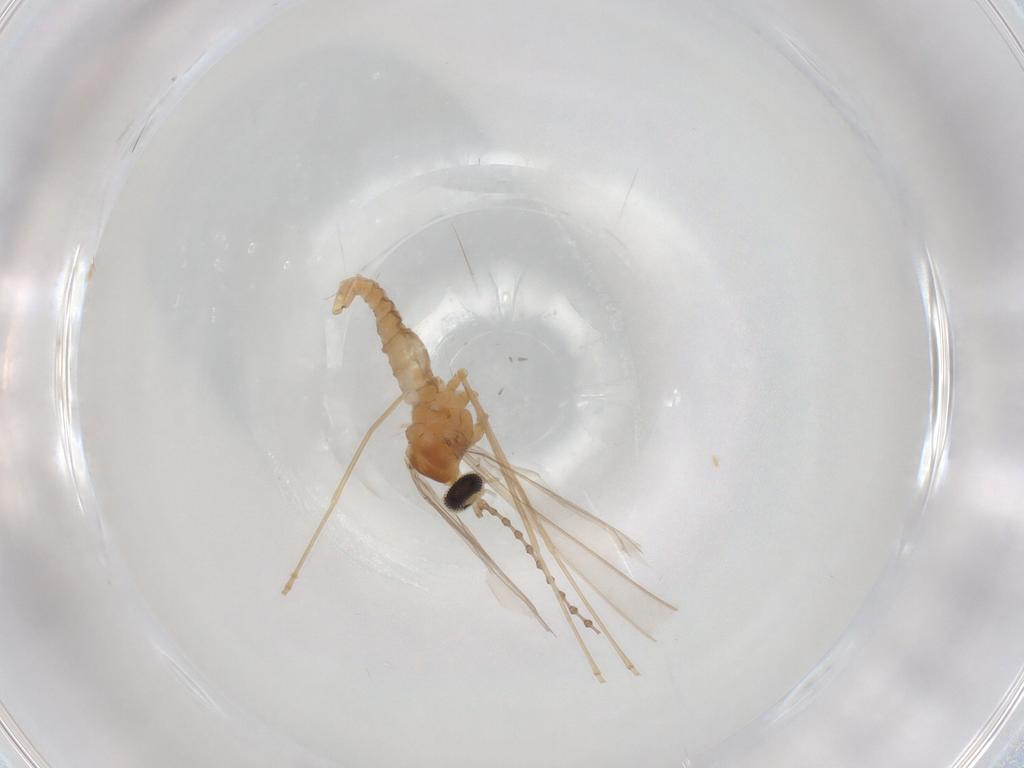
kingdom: Animalia
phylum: Arthropoda
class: Insecta
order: Diptera
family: Cecidomyiidae
